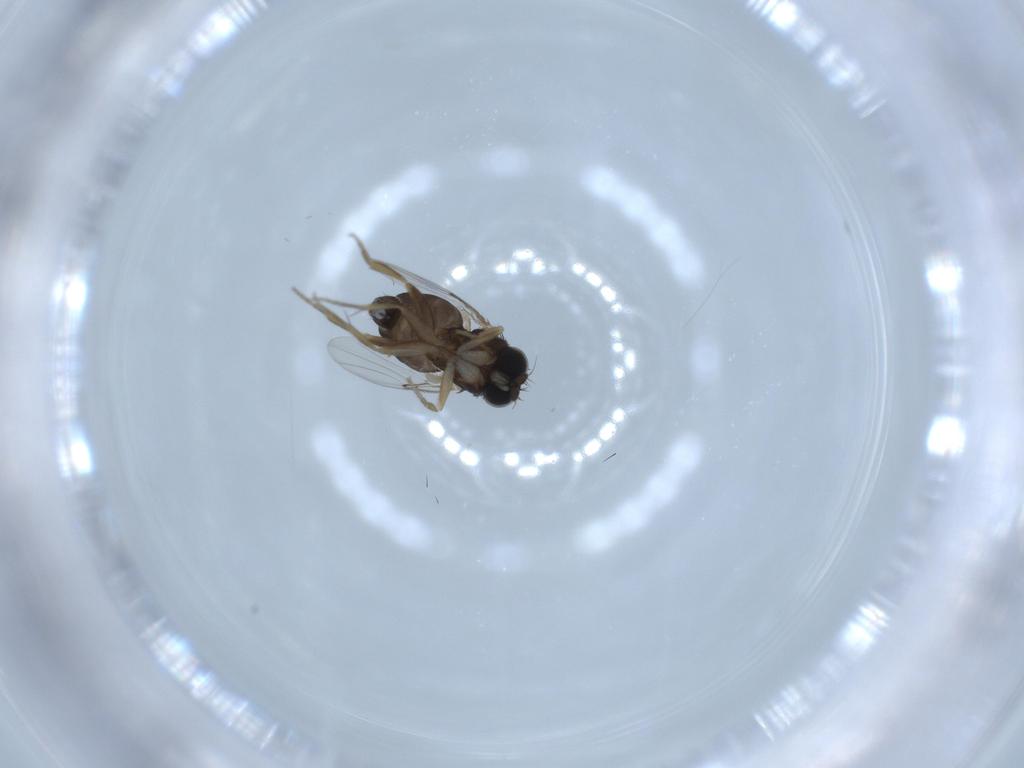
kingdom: Animalia
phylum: Arthropoda
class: Insecta
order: Diptera
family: Phoridae
